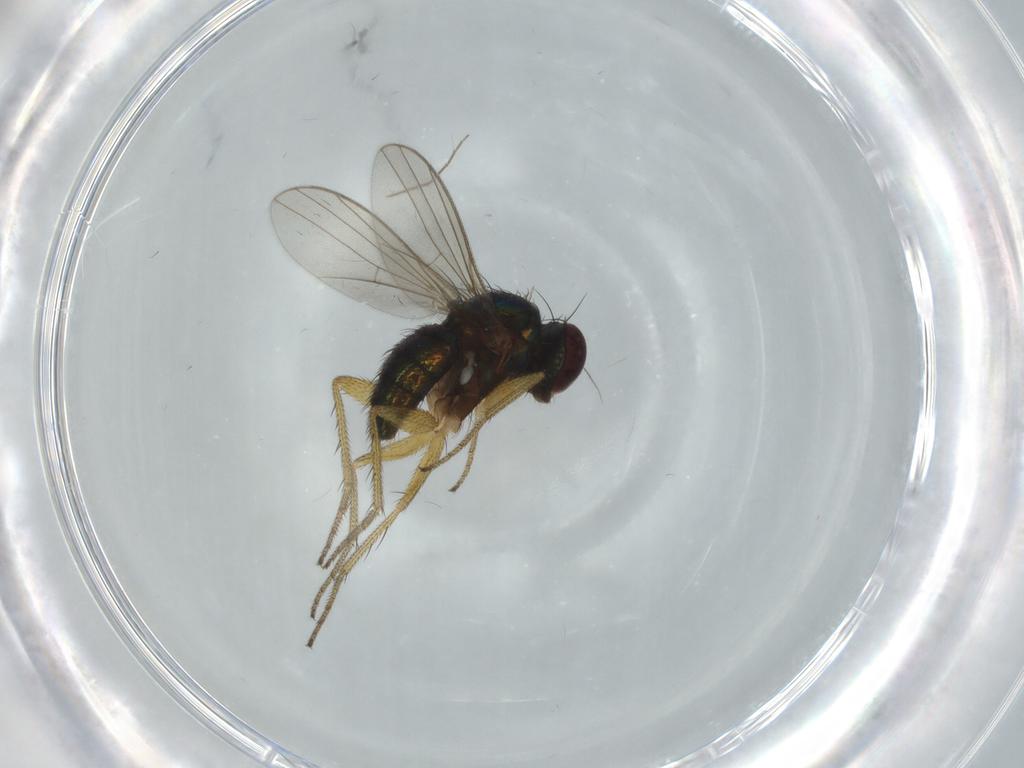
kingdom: Animalia
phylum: Arthropoda
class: Insecta
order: Diptera
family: Dolichopodidae
